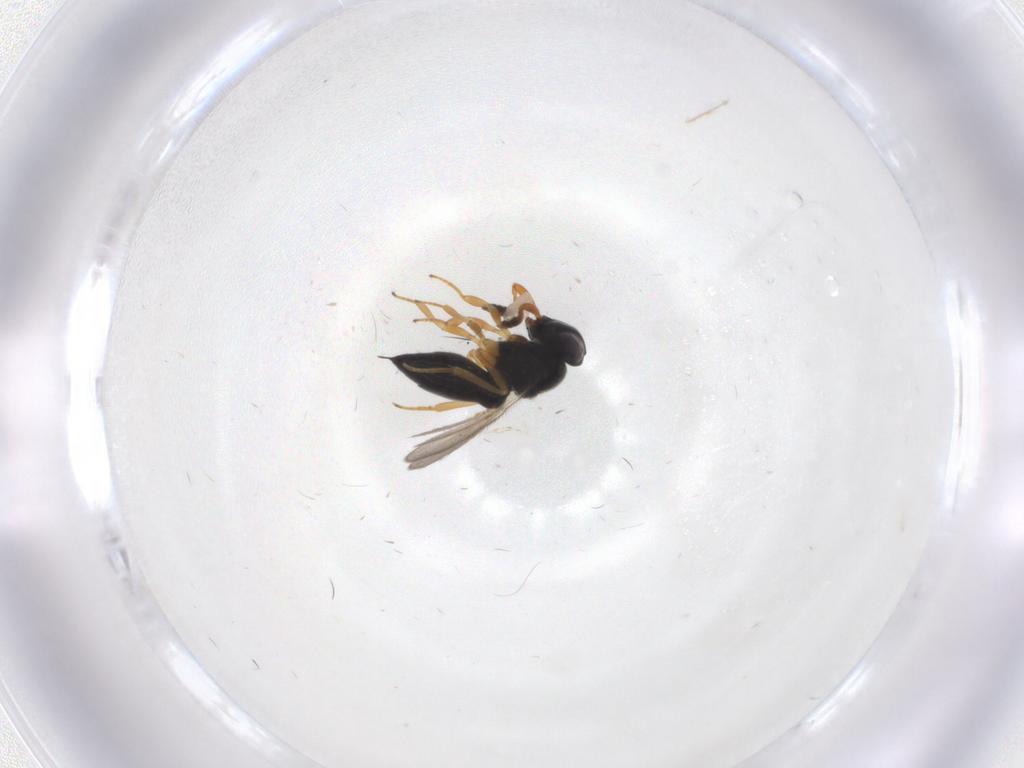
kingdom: Animalia
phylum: Arthropoda
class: Insecta
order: Hymenoptera
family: Scelionidae
